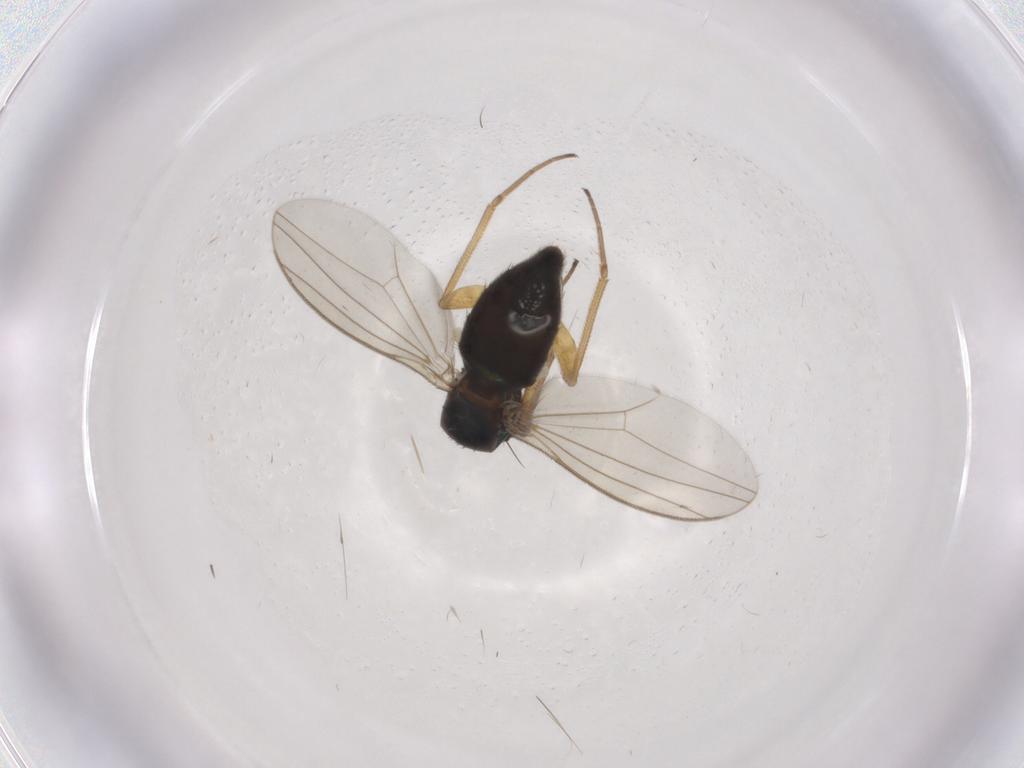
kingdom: Animalia
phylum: Arthropoda
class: Insecta
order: Diptera
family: Dolichopodidae
